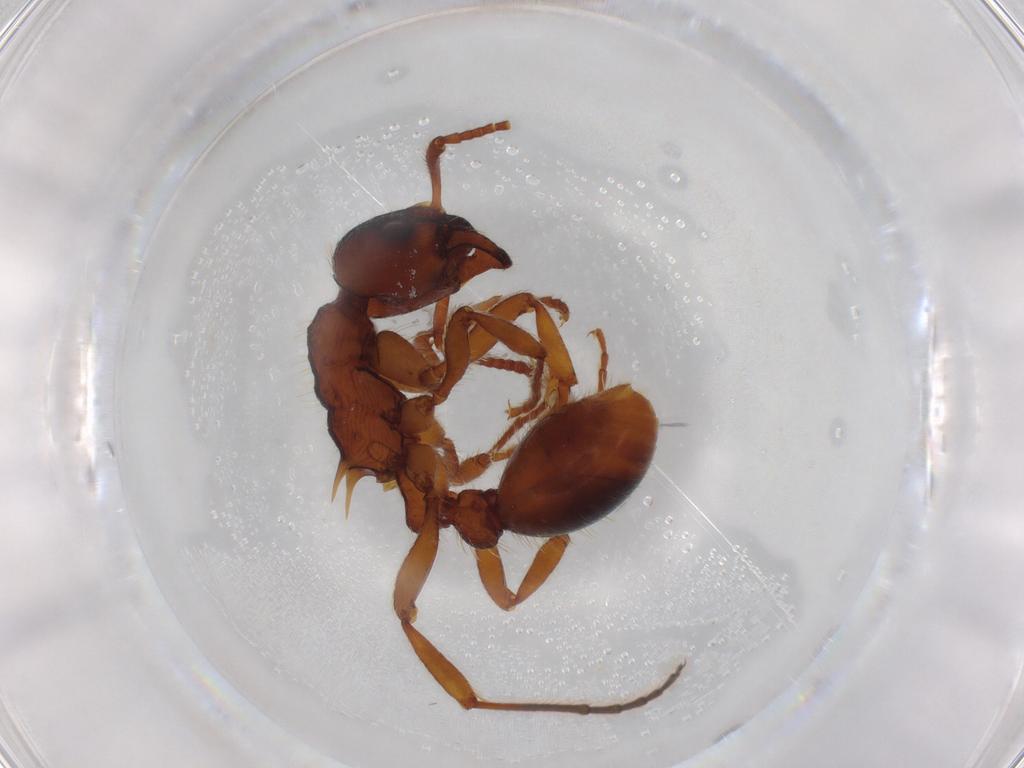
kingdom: Animalia
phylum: Arthropoda
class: Insecta
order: Hymenoptera
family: Formicidae
